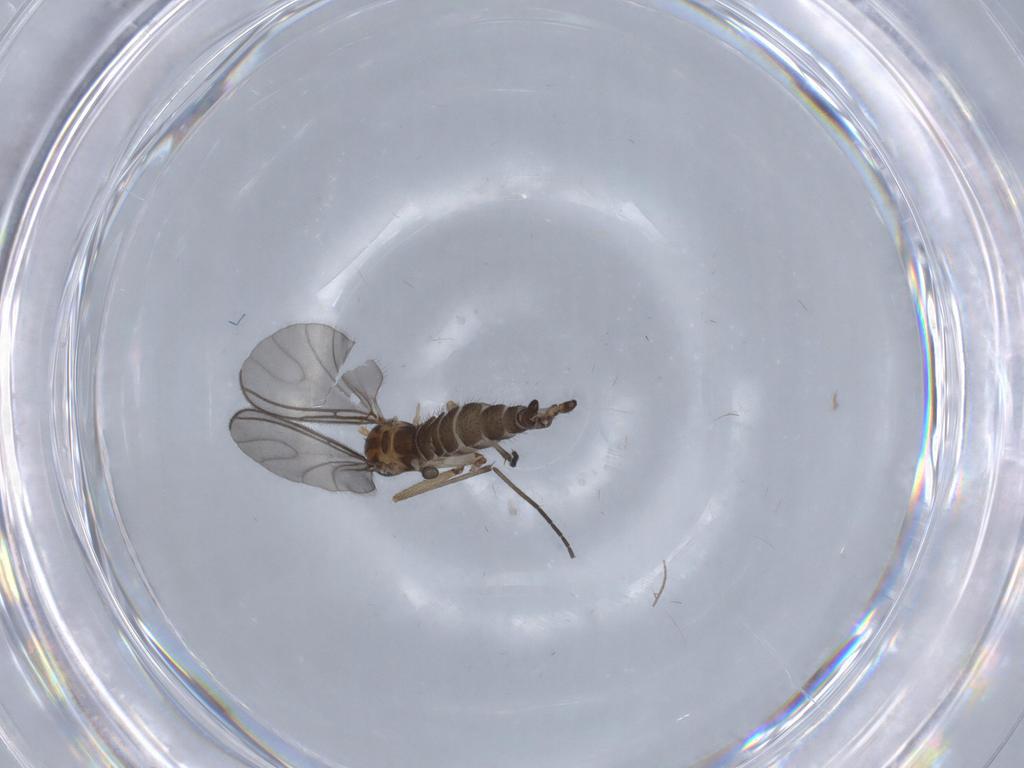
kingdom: Animalia
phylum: Arthropoda
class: Insecta
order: Diptera
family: Sciaridae
